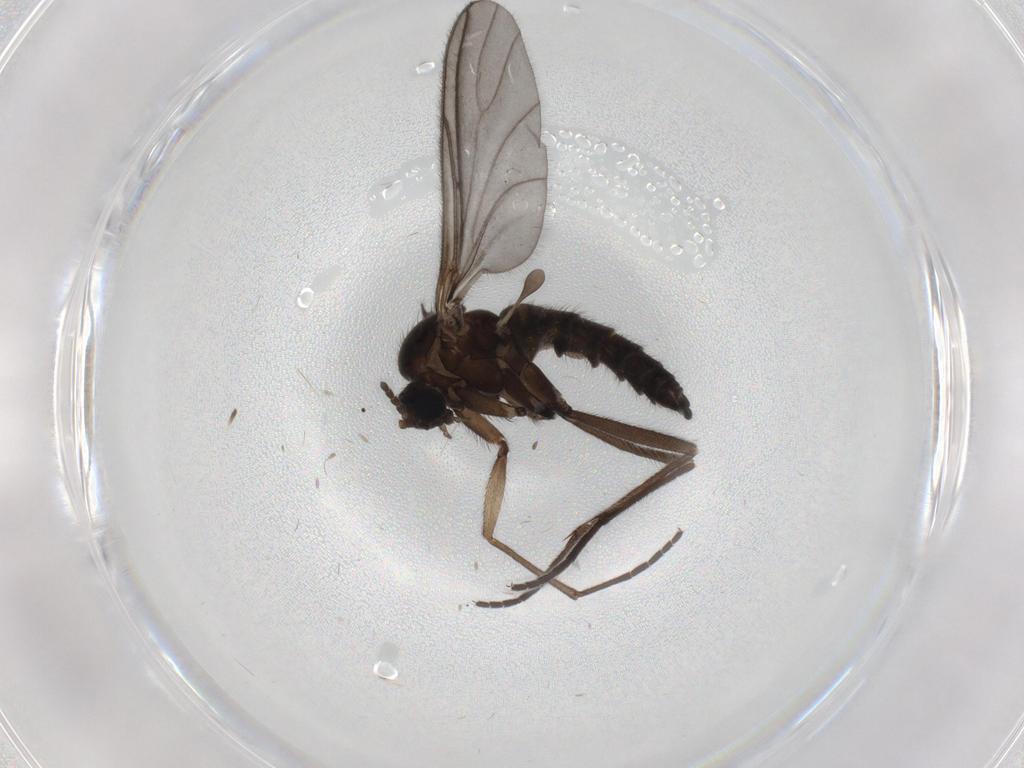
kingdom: Animalia
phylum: Arthropoda
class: Insecta
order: Diptera
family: Sciaridae
